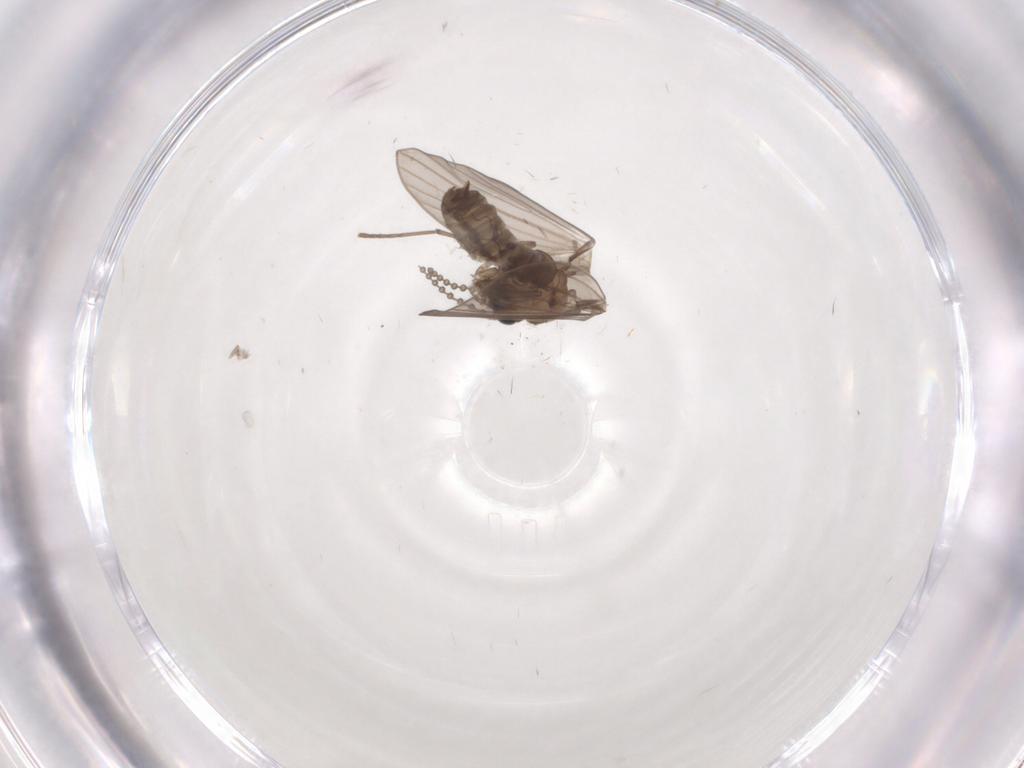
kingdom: Animalia
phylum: Arthropoda
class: Insecta
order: Diptera
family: Psychodidae
